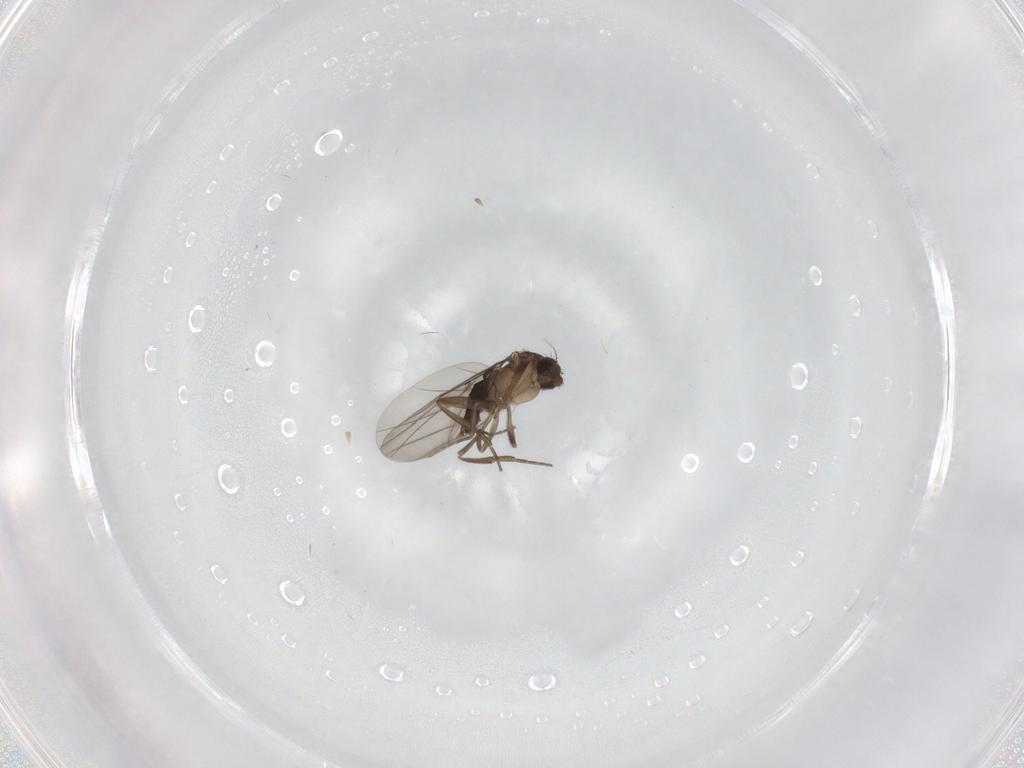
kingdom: Animalia
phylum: Arthropoda
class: Insecta
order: Diptera
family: Phoridae
